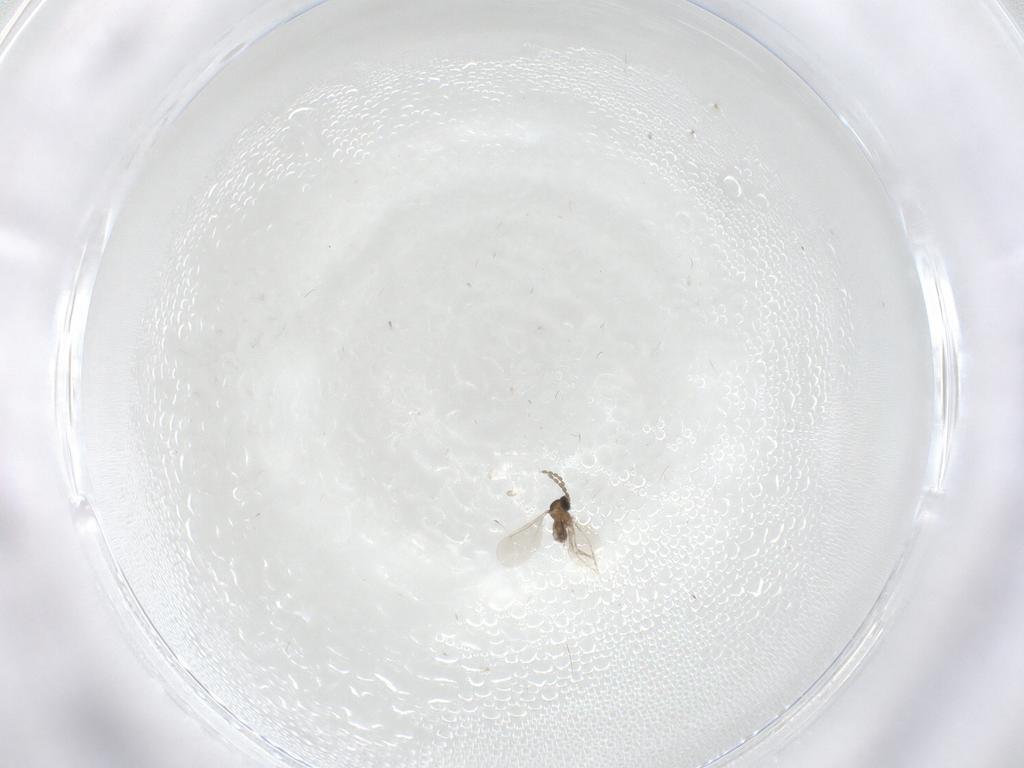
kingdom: Animalia
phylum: Arthropoda
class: Insecta
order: Diptera
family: Cecidomyiidae
